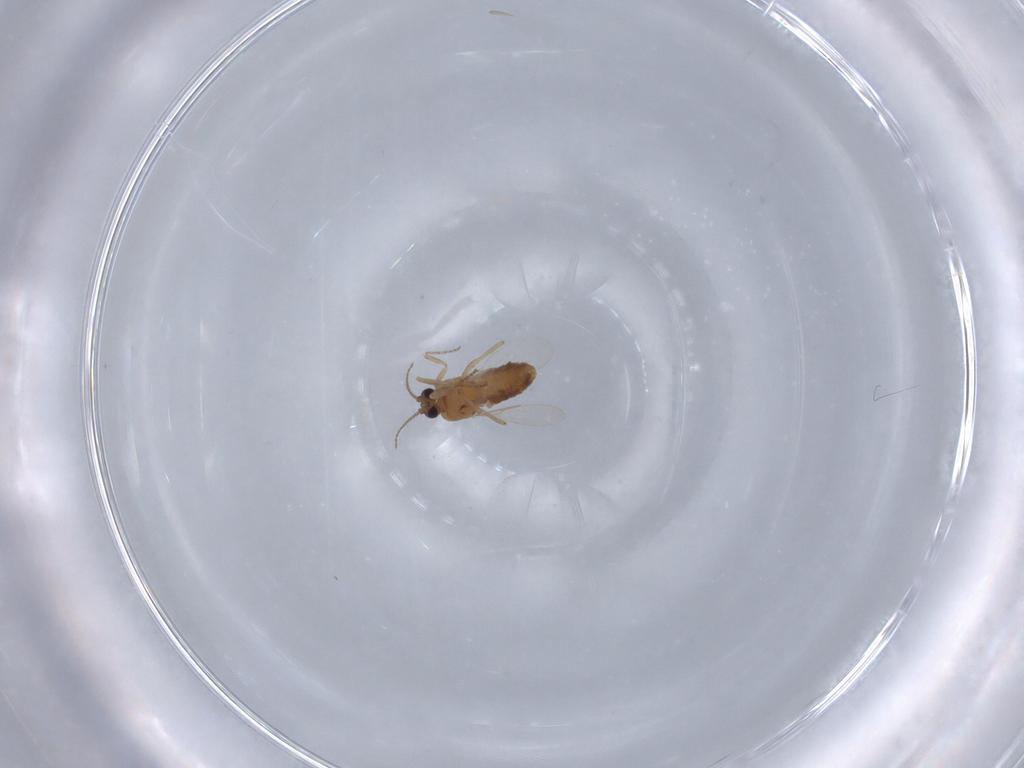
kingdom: Animalia
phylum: Arthropoda
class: Insecta
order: Diptera
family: Ceratopogonidae
